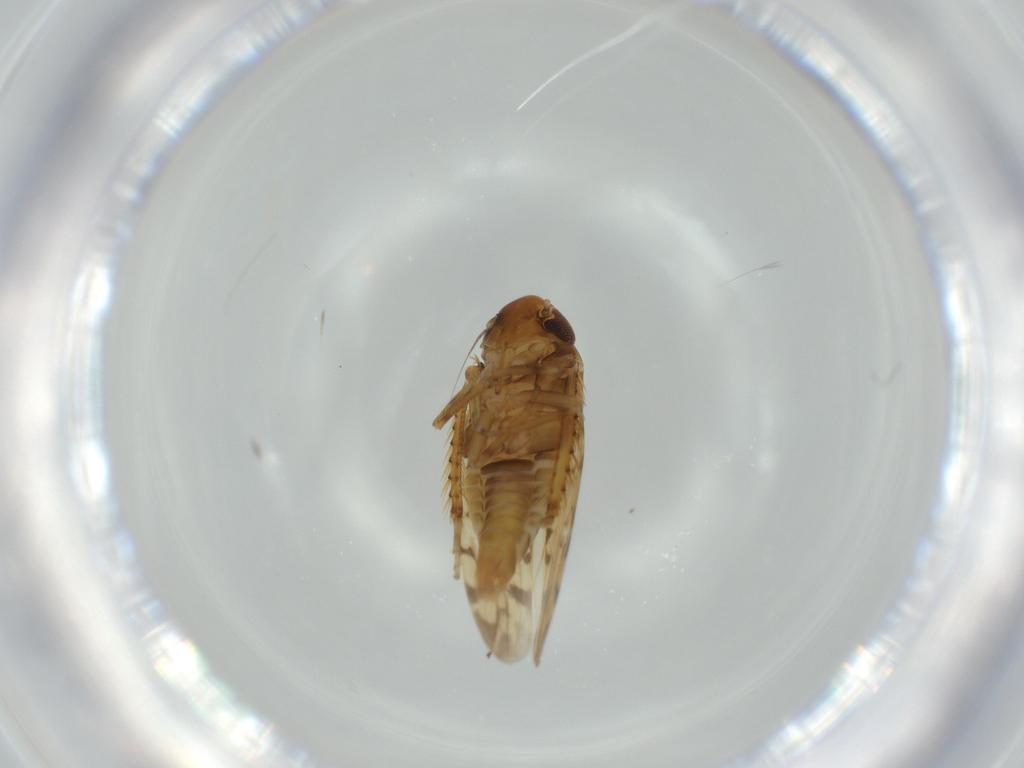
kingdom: Animalia
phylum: Arthropoda
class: Insecta
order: Hemiptera
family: Cicadellidae
